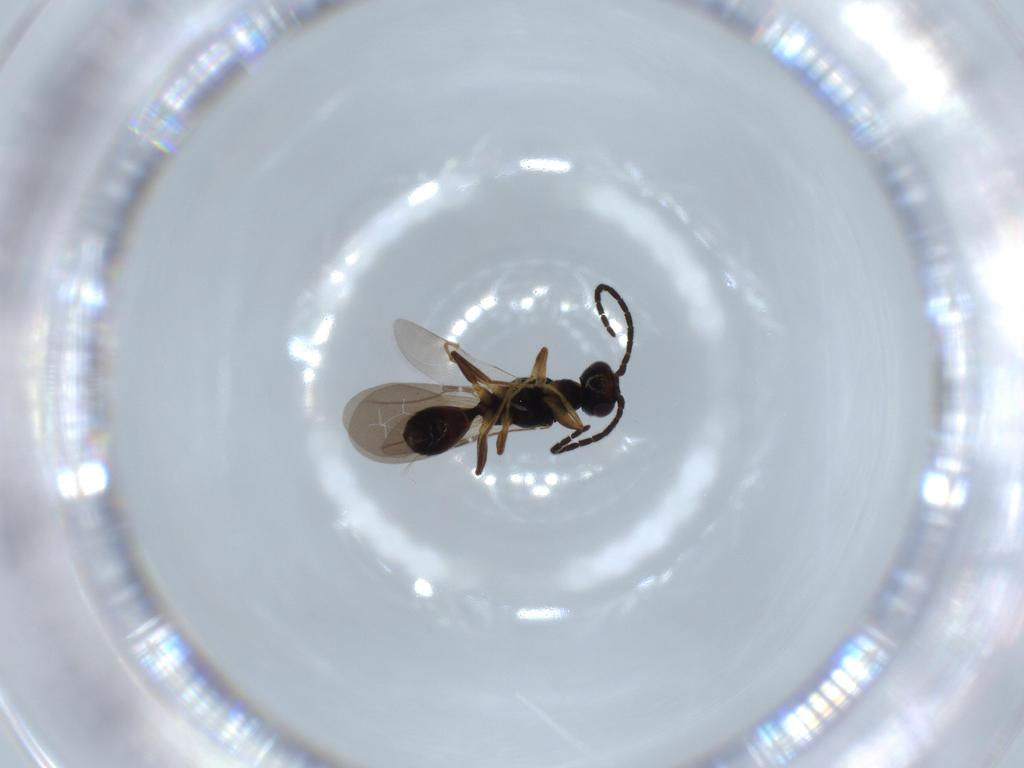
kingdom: Animalia
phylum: Arthropoda
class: Insecta
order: Hymenoptera
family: Bethylidae
